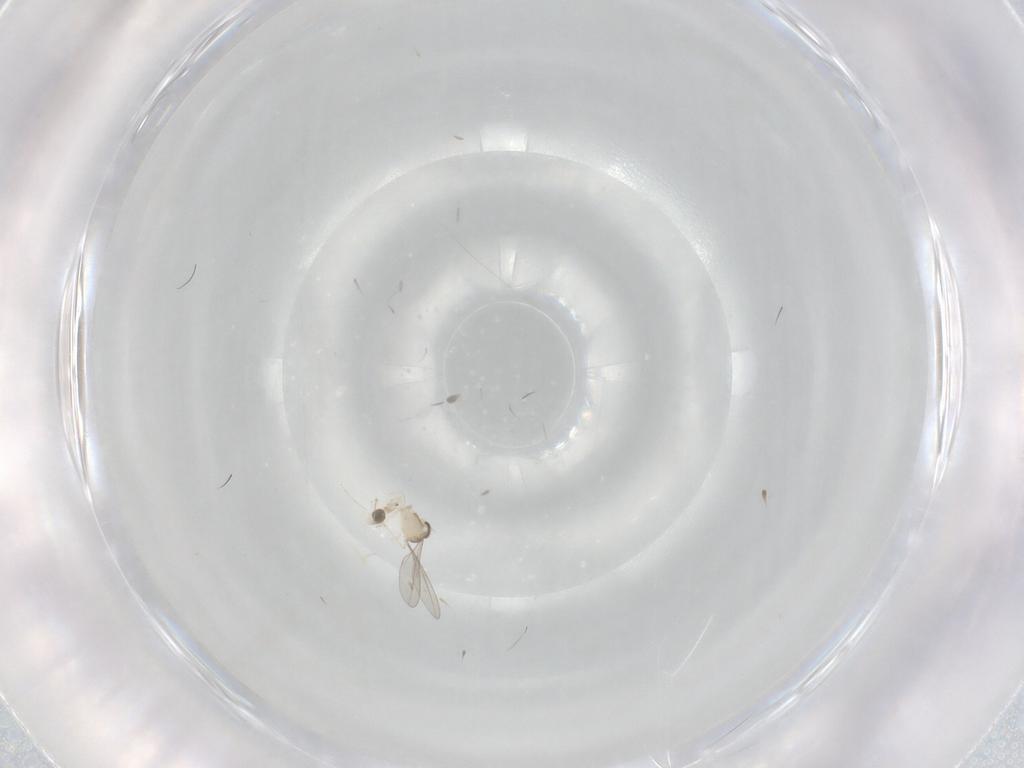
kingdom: Animalia
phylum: Arthropoda
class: Insecta
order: Diptera
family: Cecidomyiidae
